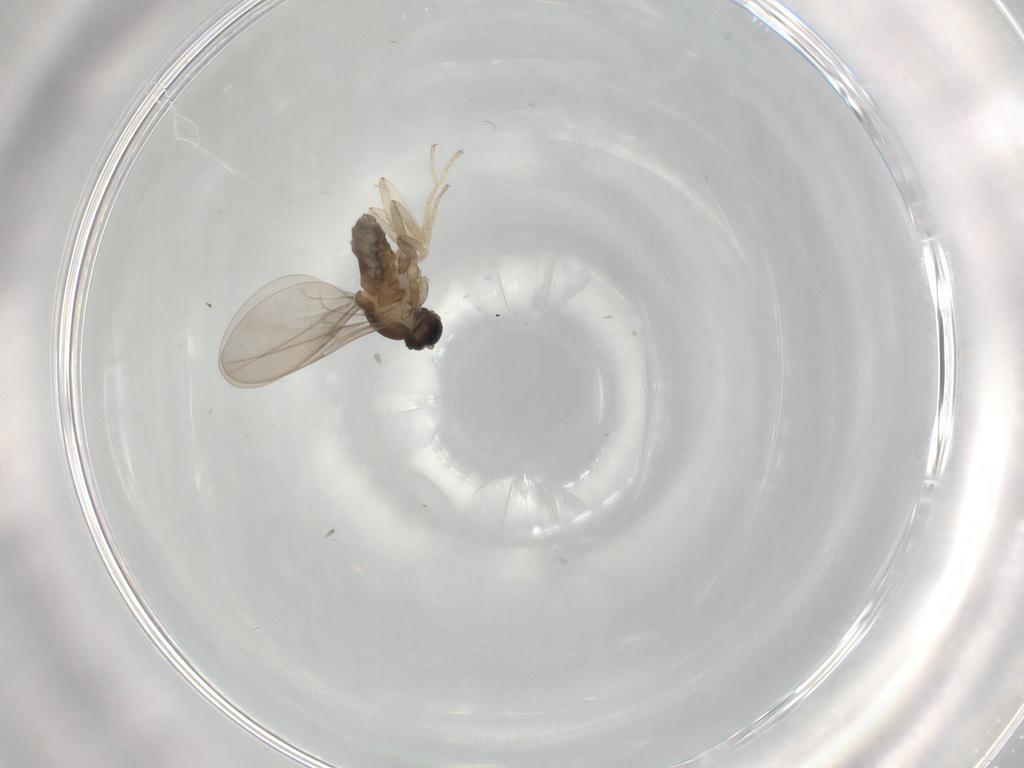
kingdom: Animalia
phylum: Arthropoda
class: Insecta
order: Diptera
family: Cecidomyiidae
